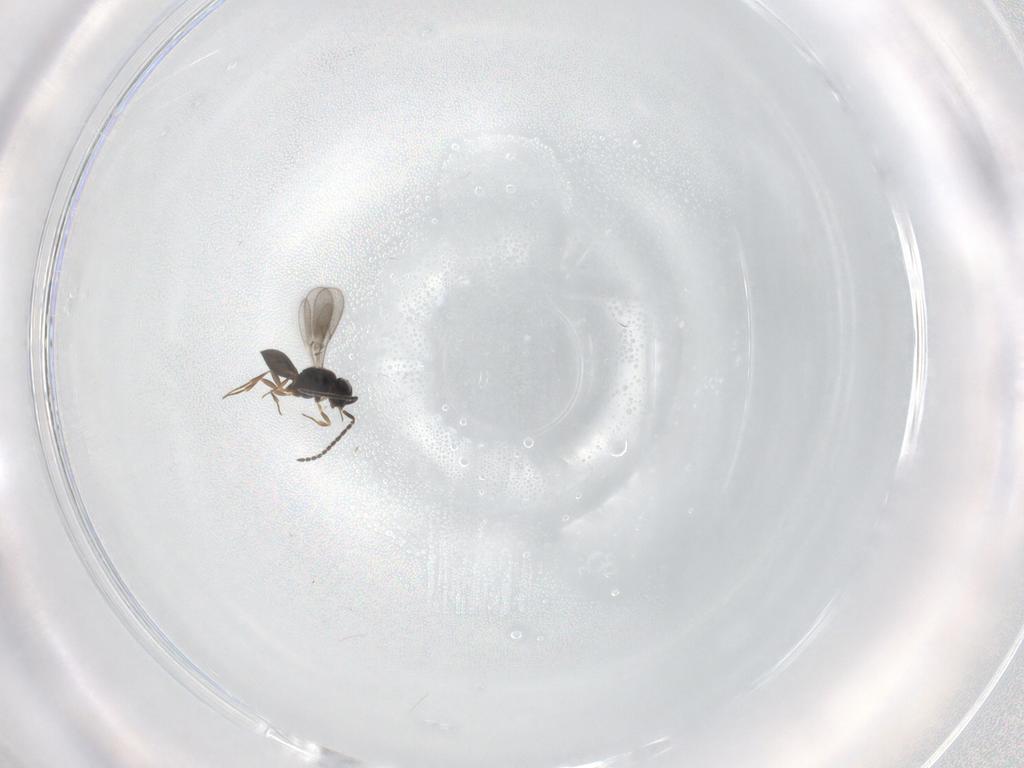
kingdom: Animalia
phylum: Arthropoda
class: Insecta
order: Hymenoptera
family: Scelionidae
